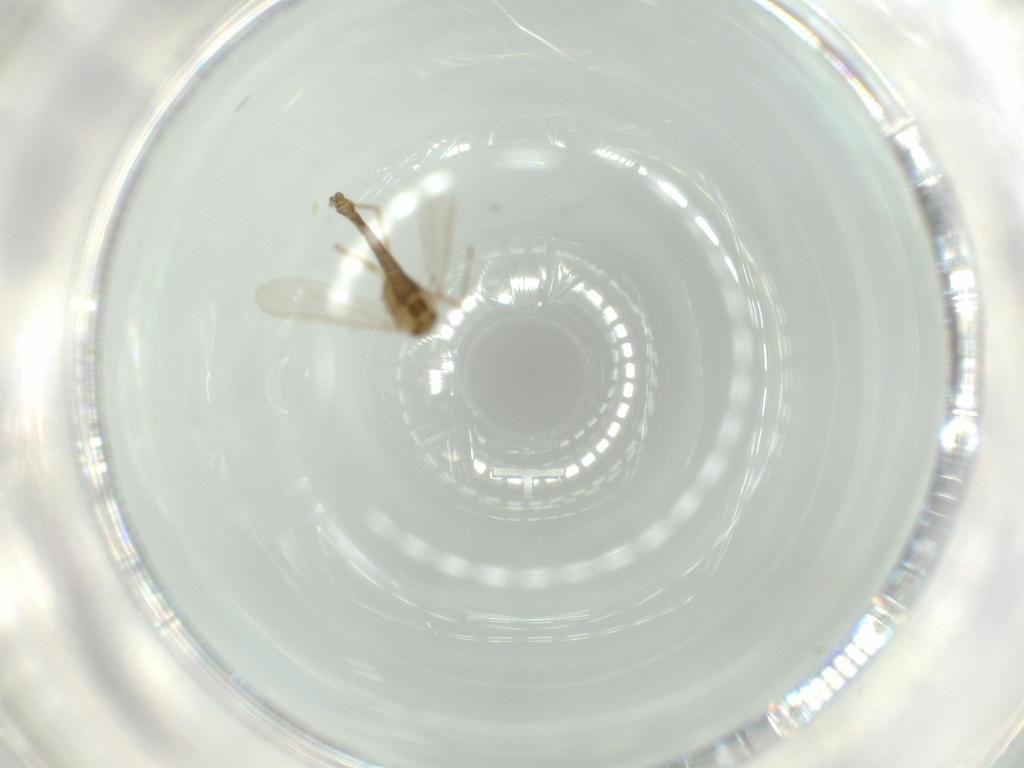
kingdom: Animalia
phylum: Arthropoda
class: Insecta
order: Diptera
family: Chironomidae
